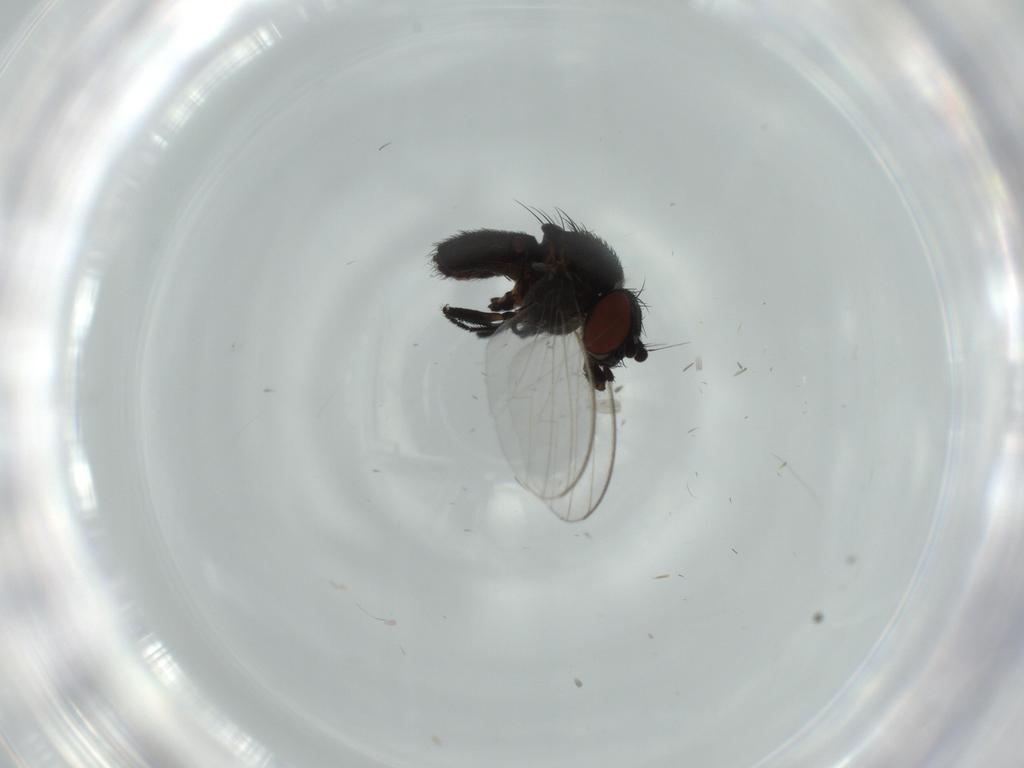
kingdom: Animalia
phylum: Arthropoda
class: Insecta
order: Diptera
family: Milichiidae
